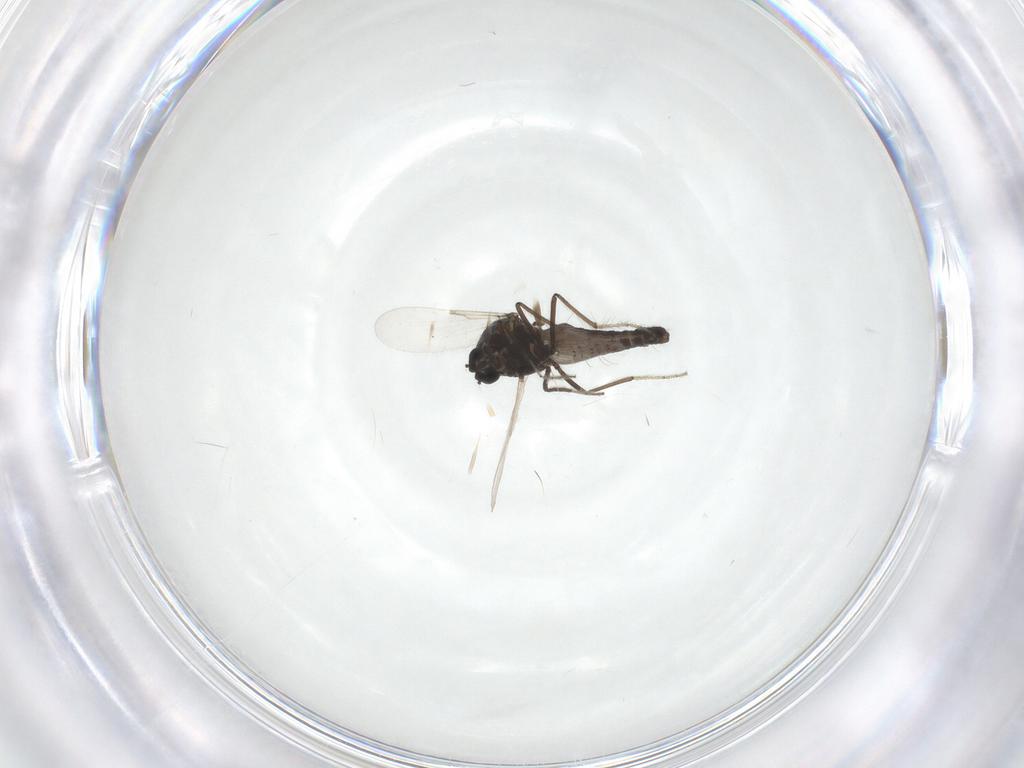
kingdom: Animalia
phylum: Arthropoda
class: Insecta
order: Diptera
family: Ceratopogonidae
